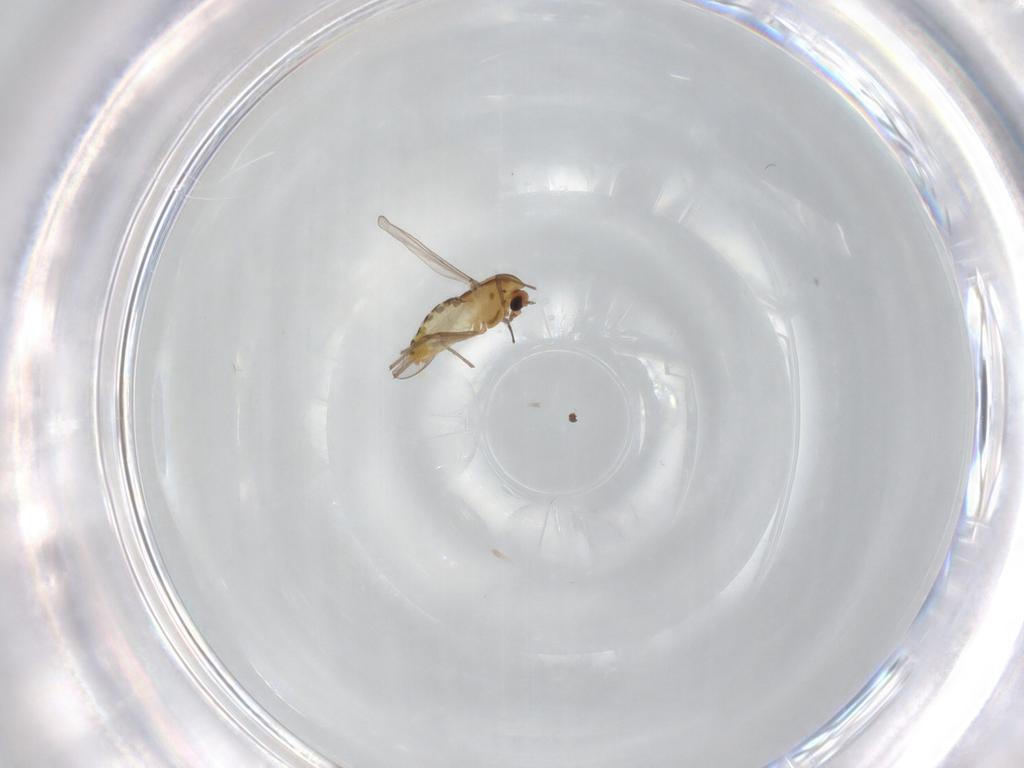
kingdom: Animalia
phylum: Arthropoda
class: Insecta
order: Diptera
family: Chironomidae
